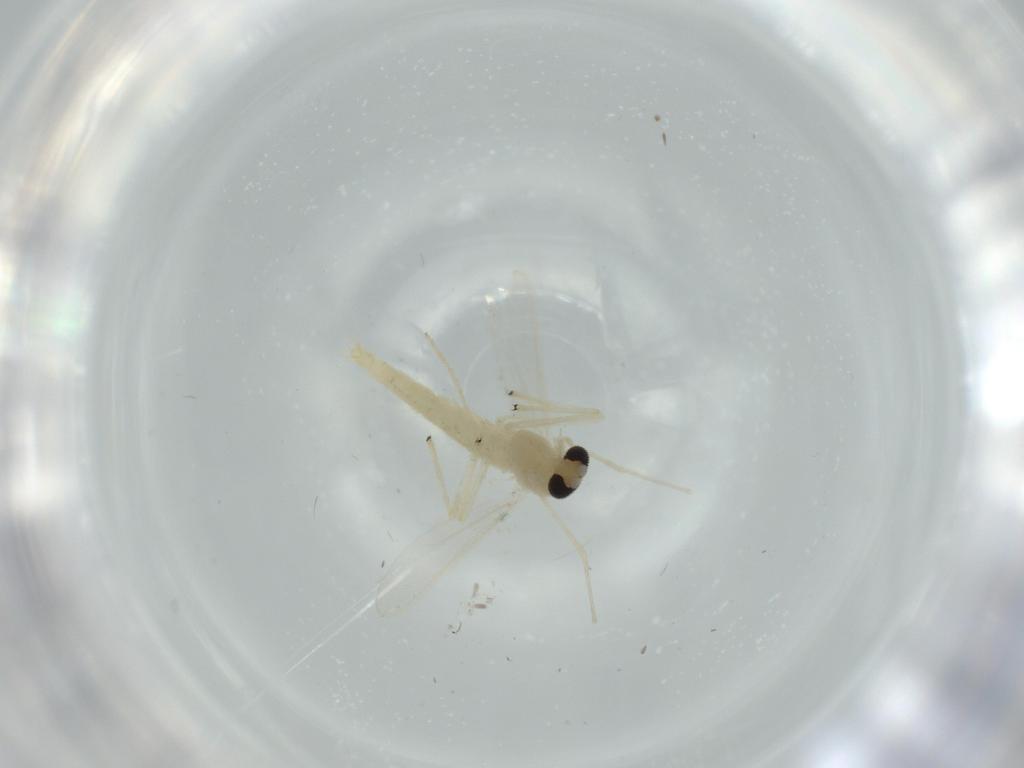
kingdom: Animalia
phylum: Arthropoda
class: Insecta
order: Diptera
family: Chironomidae
